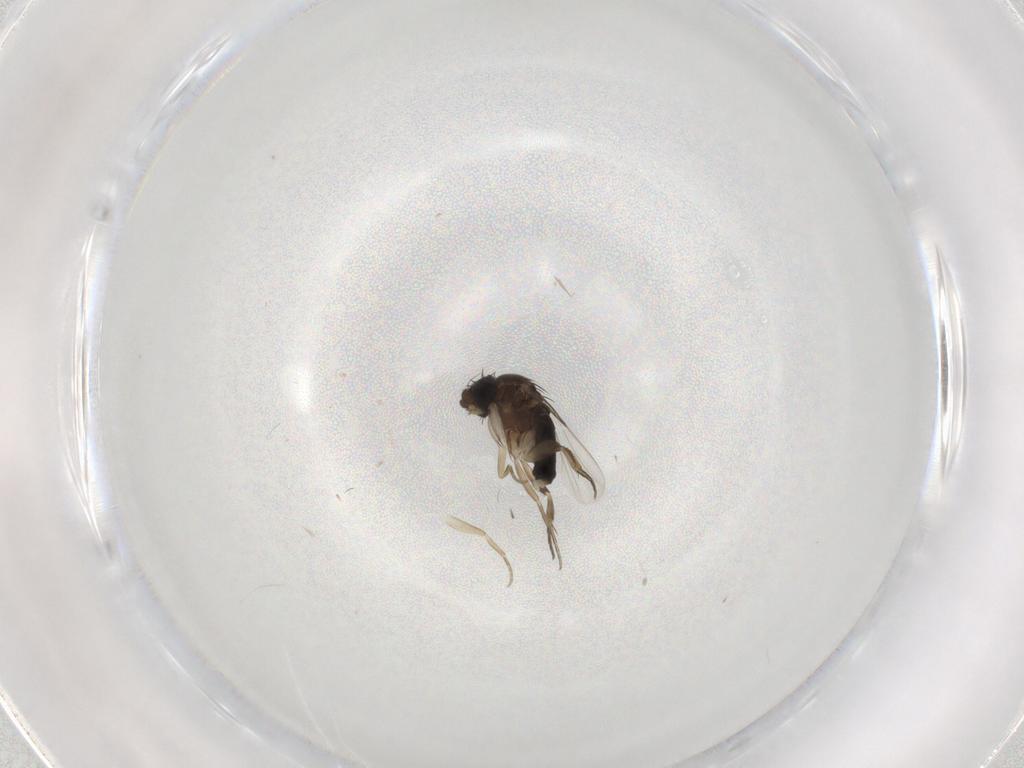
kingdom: Animalia
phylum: Arthropoda
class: Insecta
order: Diptera
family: Phoridae
